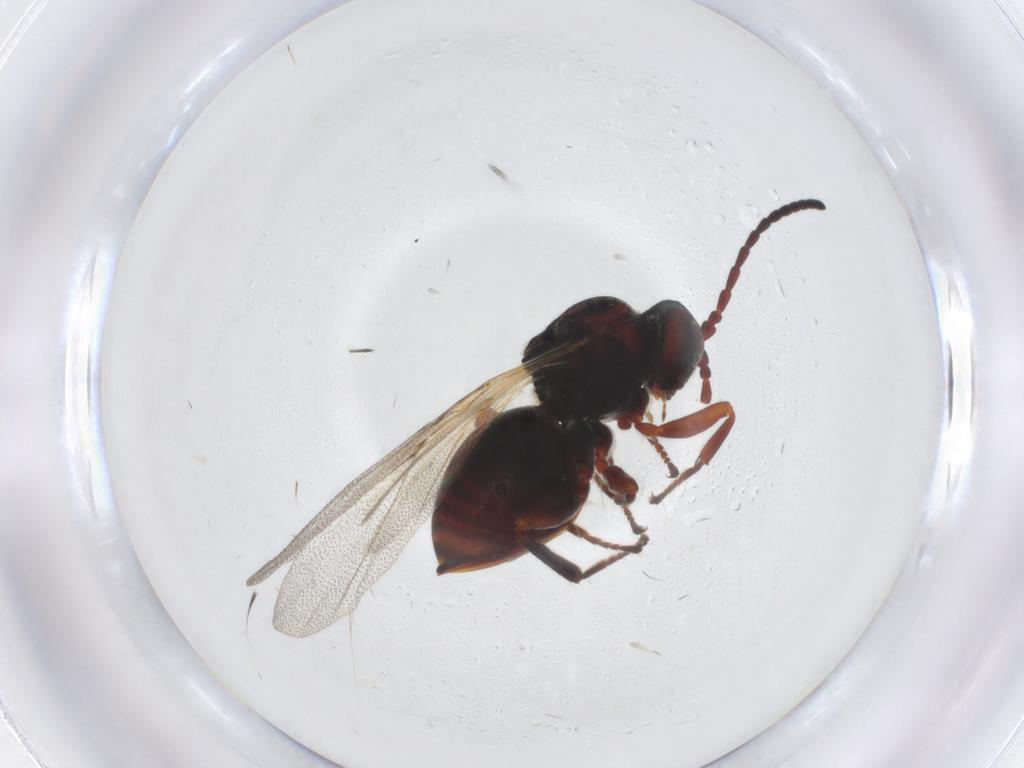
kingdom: Animalia
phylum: Arthropoda
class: Insecta
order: Hymenoptera
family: Cynipidae
